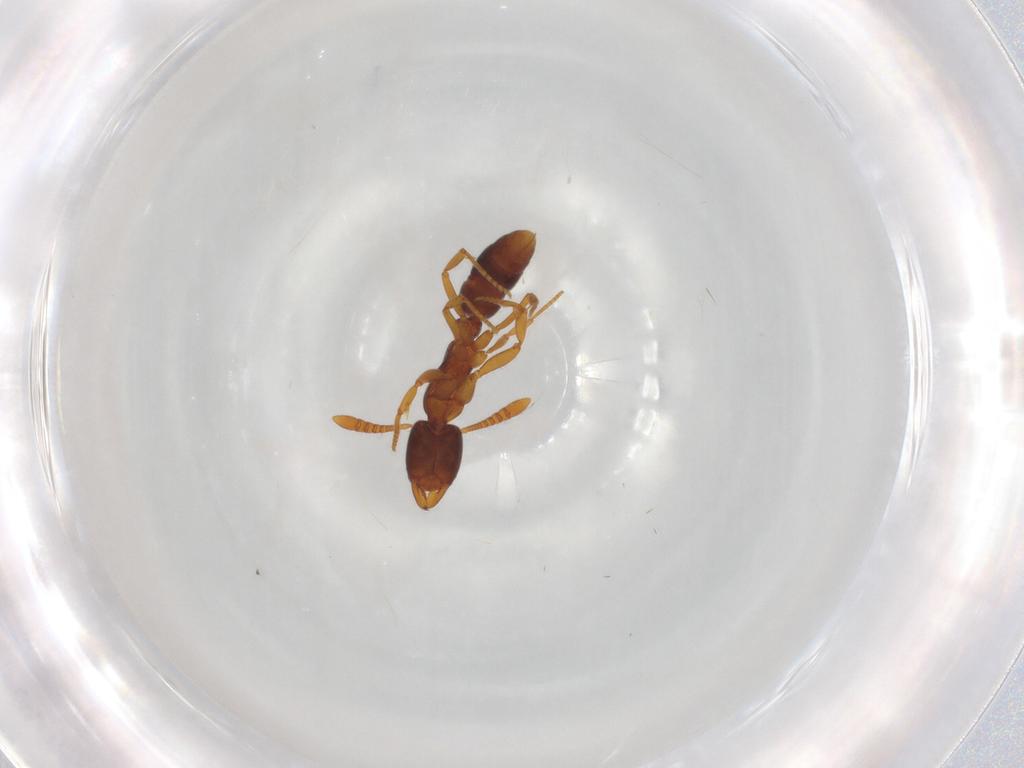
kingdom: Animalia
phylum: Arthropoda
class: Insecta
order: Hymenoptera
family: Formicidae
